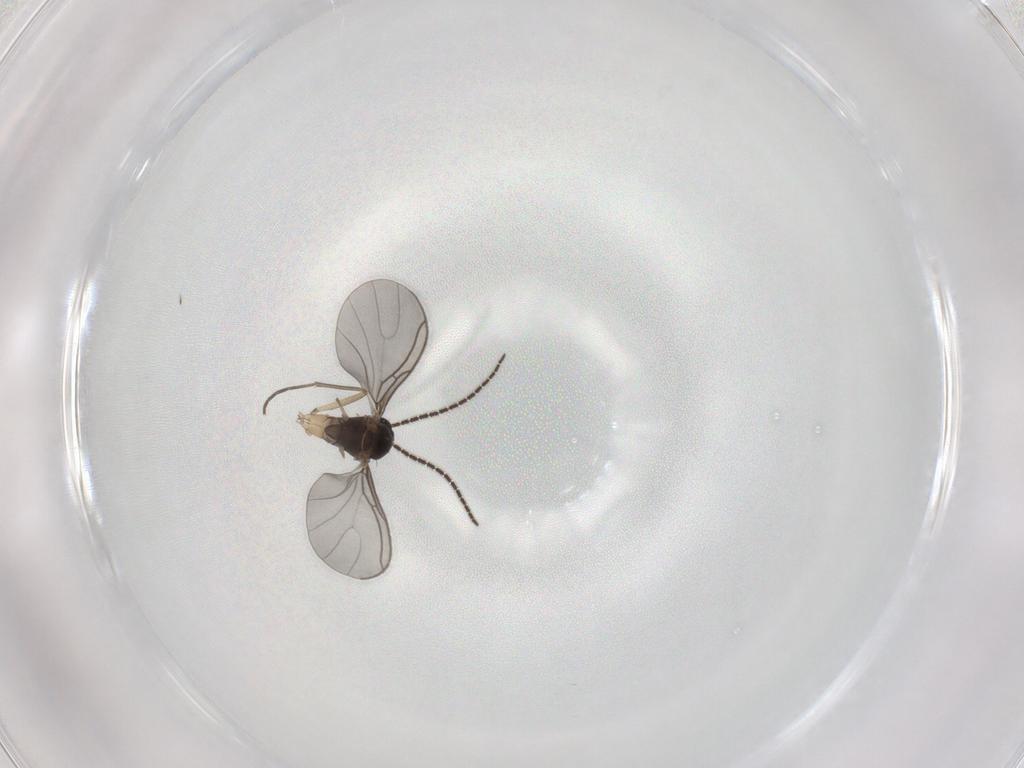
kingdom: Animalia
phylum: Arthropoda
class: Insecta
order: Diptera
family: Sciaridae
